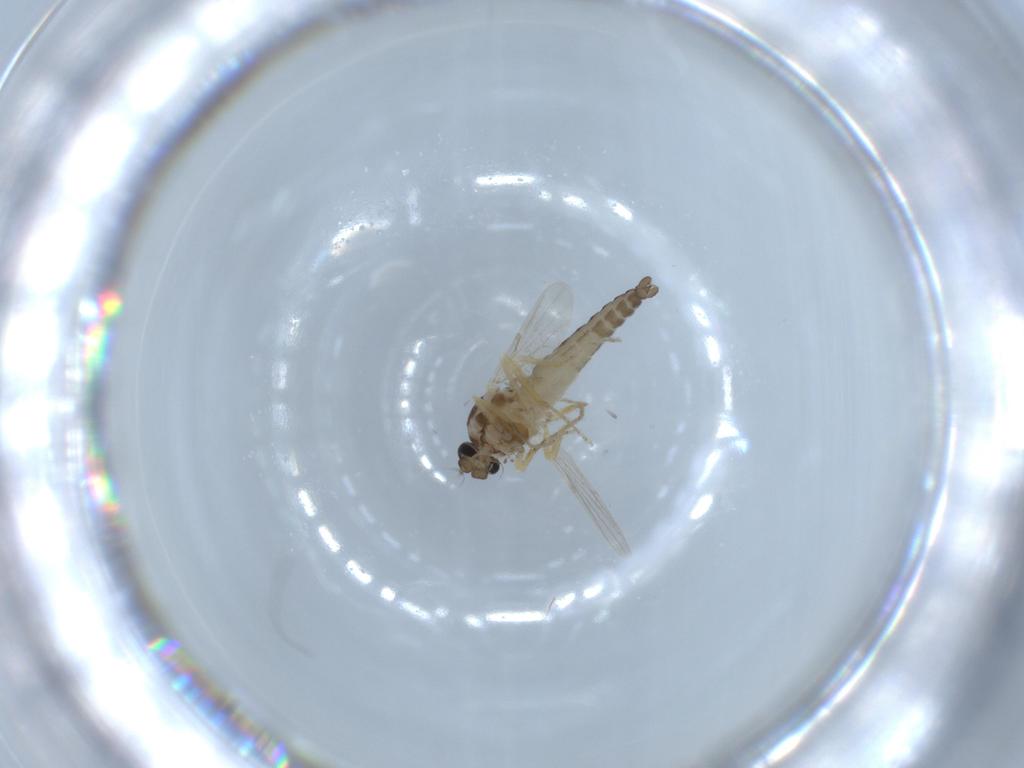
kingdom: Animalia
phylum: Arthropoda
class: Insecta
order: Diptera
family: Ceratopogonidae
